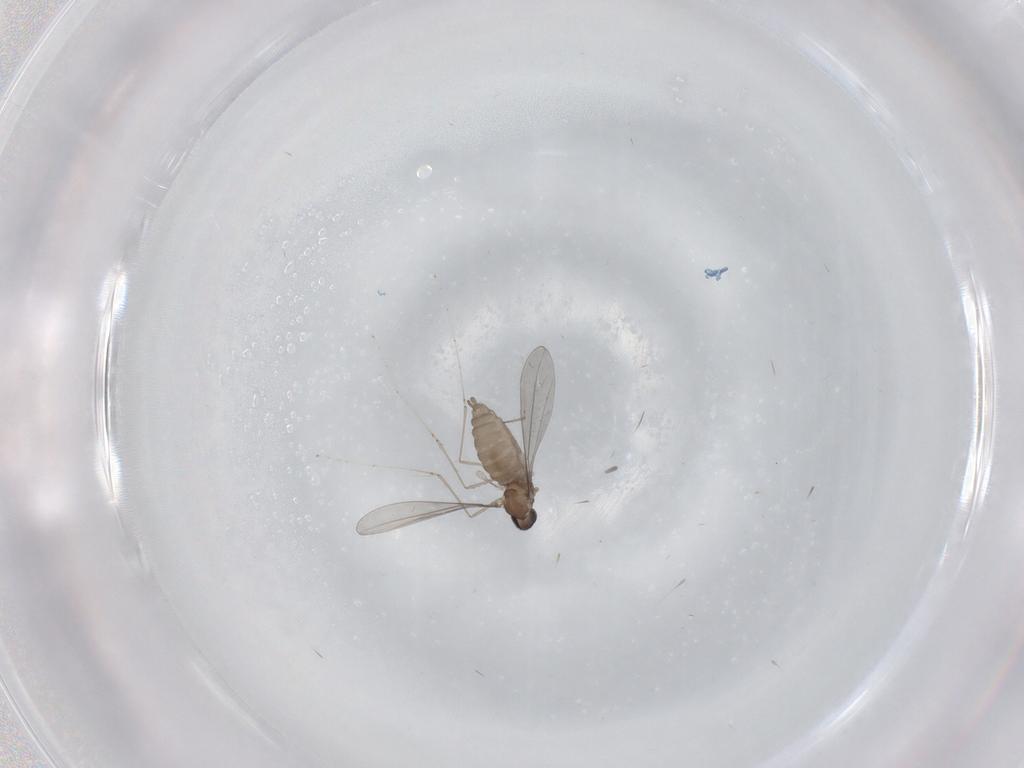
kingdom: Animalia
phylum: Arthropoda
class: Insecta
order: Diptera
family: Cecidomyiidae
